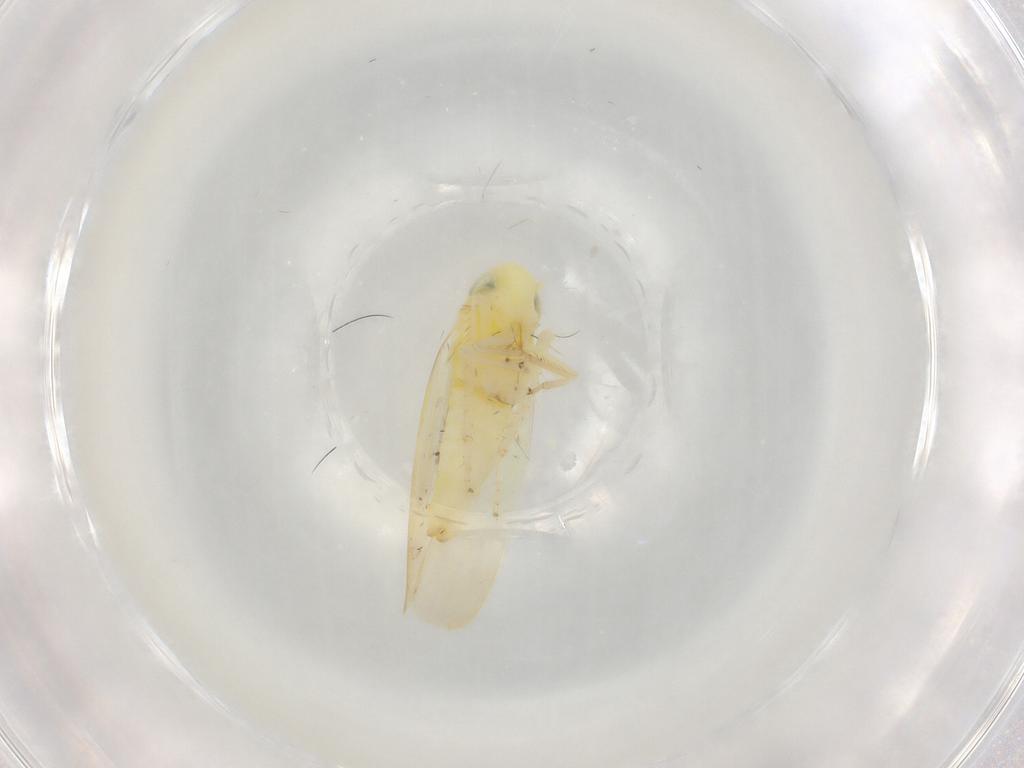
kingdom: Animalia
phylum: Arthropoda
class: Insecta
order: Hemiptera
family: Cicadellidae
